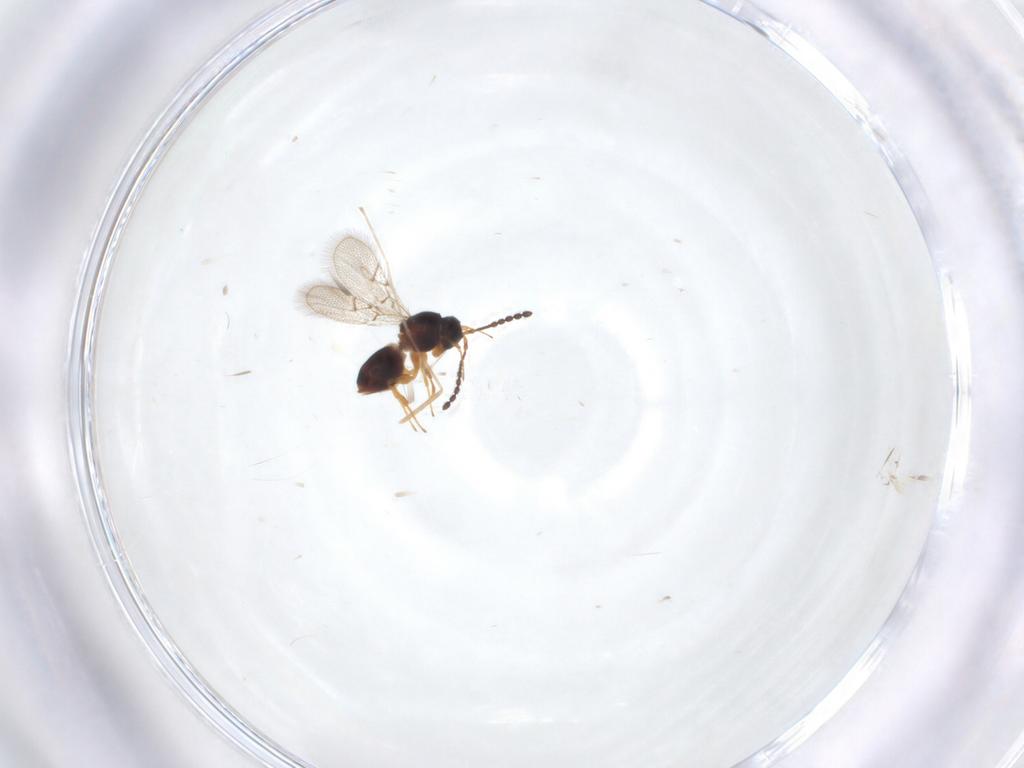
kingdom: Animalia
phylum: Arthropoda
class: Insecta
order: Hymenoptera
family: Figitidae
